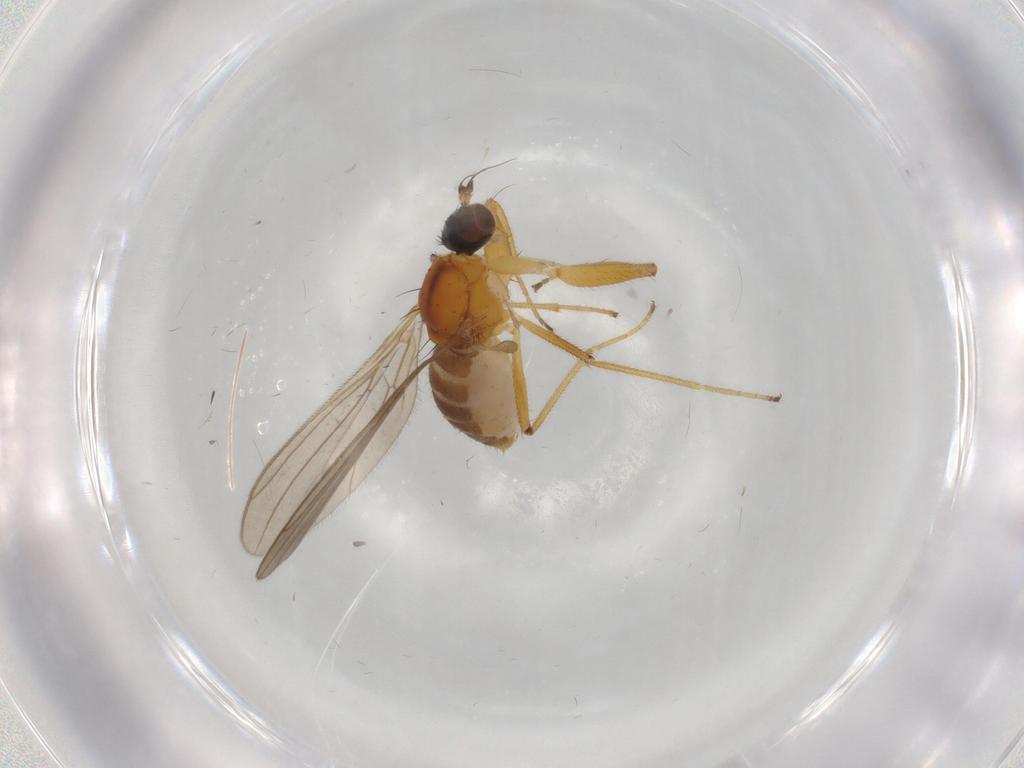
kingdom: Animalia
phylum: Arthropoda
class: Insecta
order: Diptera
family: Empididae
